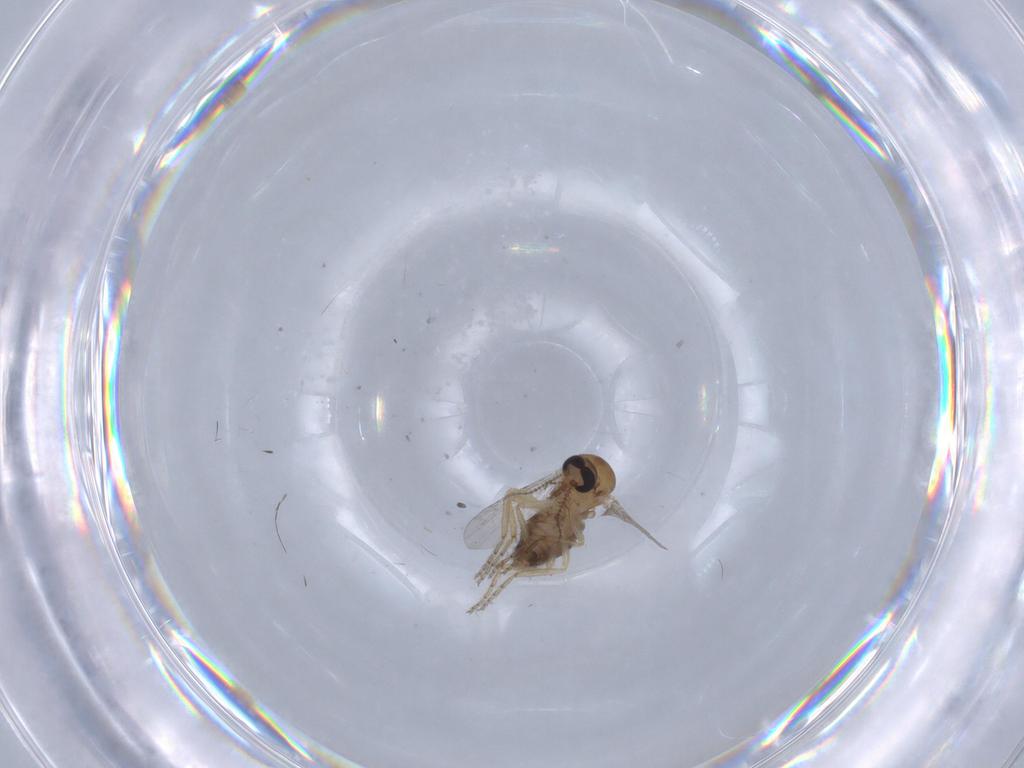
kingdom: Animalia
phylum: Arthropoda
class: Insecta
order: Diptera
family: Ceratopogonidae
